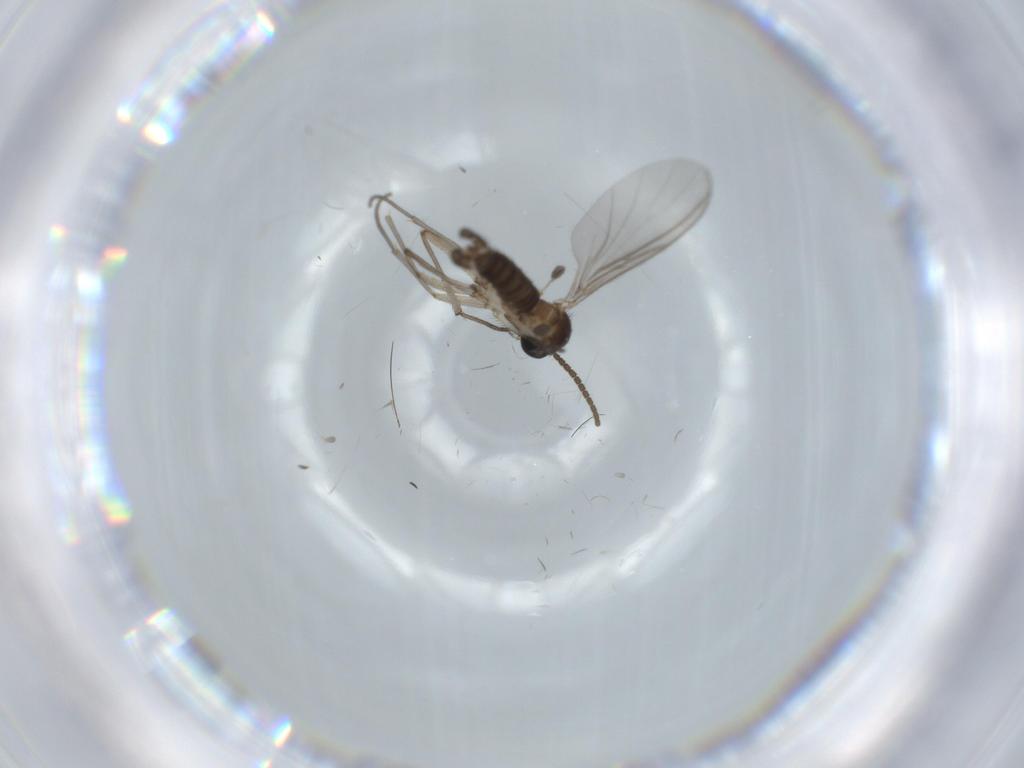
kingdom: Animalia
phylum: Arthropoda
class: Insecta
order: Diptera
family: Sciaridae
